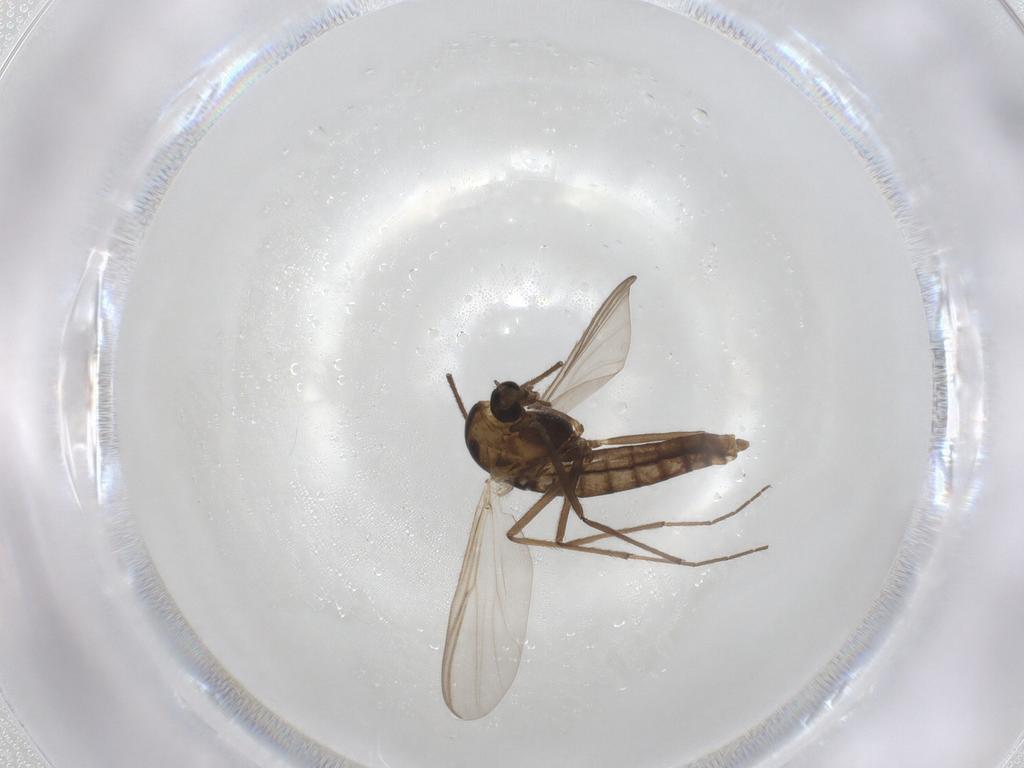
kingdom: Animalia
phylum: Arthropoda
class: Insecta
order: Diptera
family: Chironomidae
